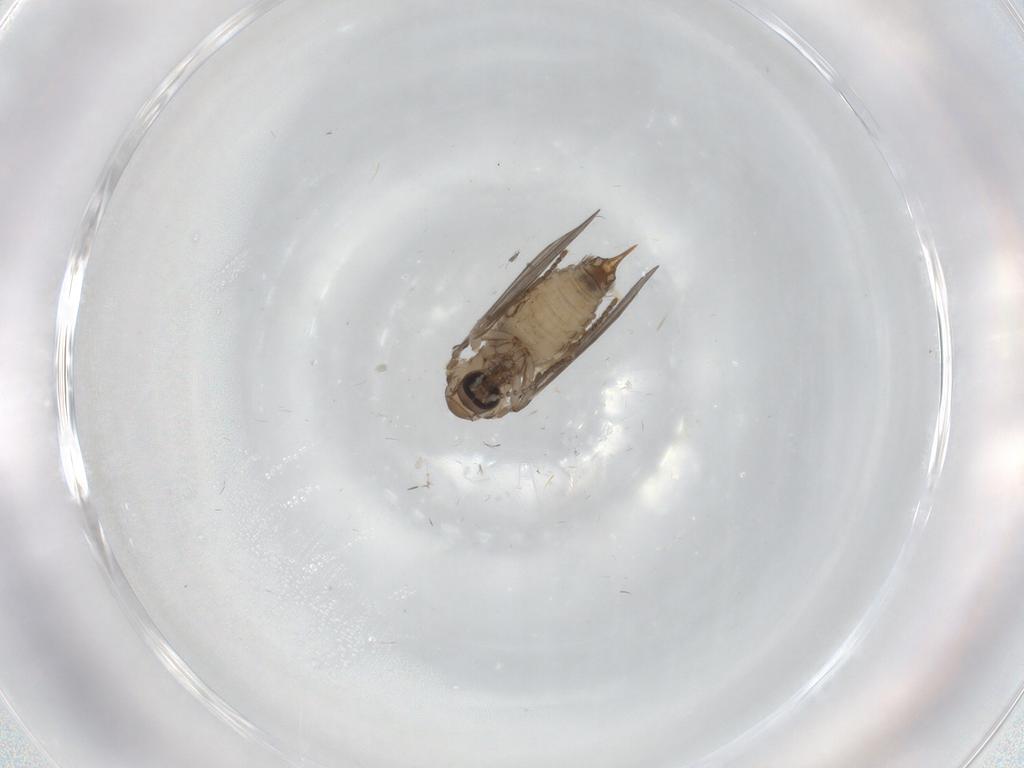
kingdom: Animalia
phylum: Arthropoda
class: Insecta
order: Diptera
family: Psychodidae
